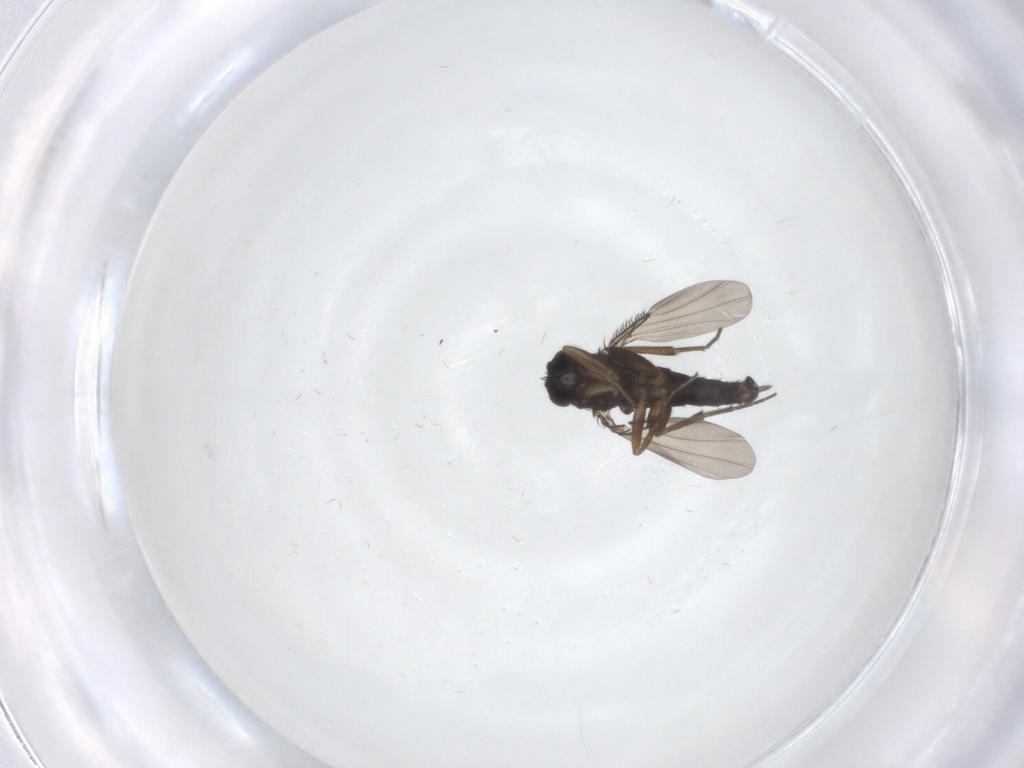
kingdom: Animalia
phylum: Arthropoda
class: Insecta
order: Diptera
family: Phoridae
